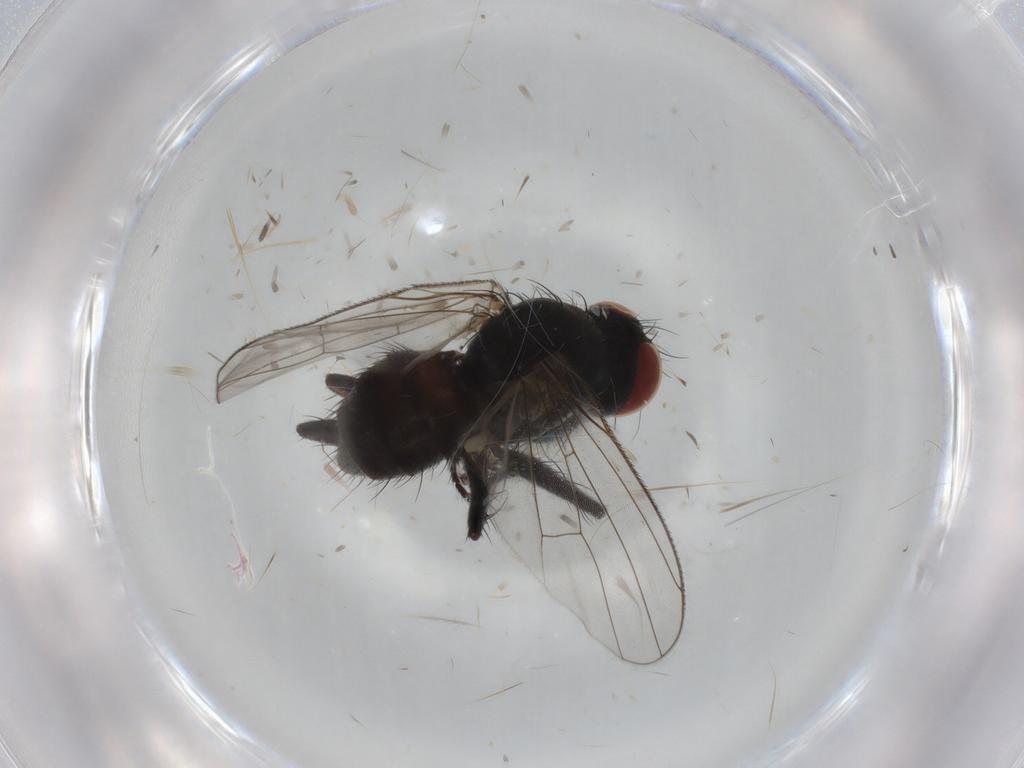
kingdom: Animalia
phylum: Arthropoda
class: Insecta
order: Diptera
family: Muscidae
